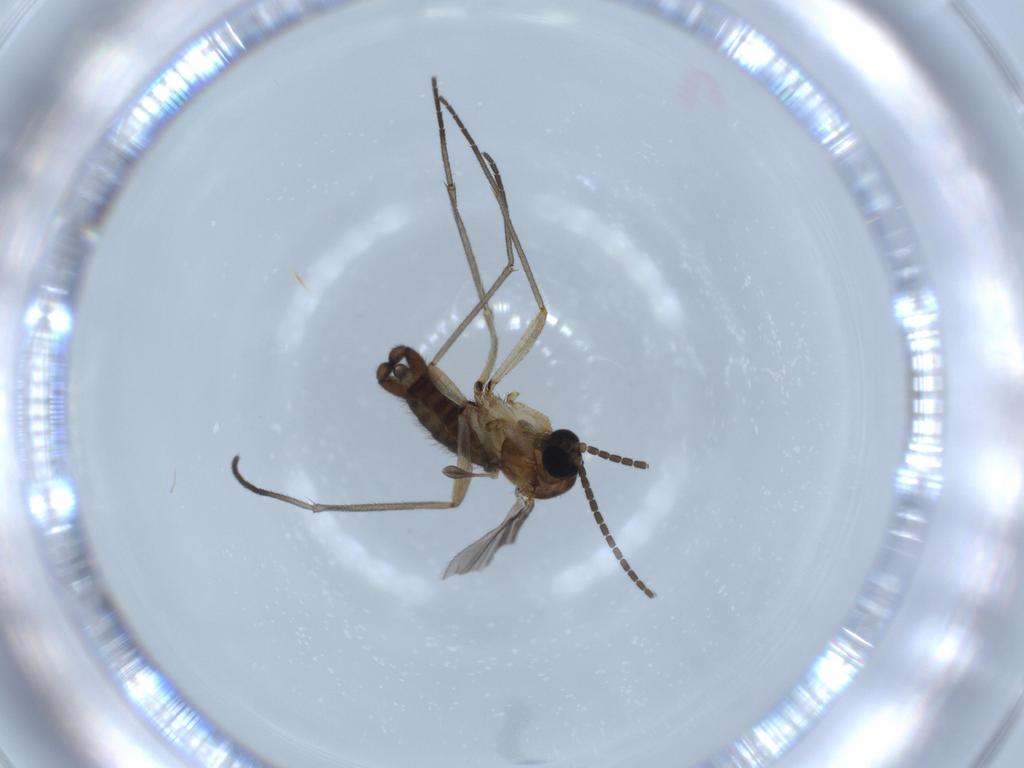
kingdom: Animalia
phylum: Arthropoda
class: Insecta
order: Diptera
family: Sciaridae
